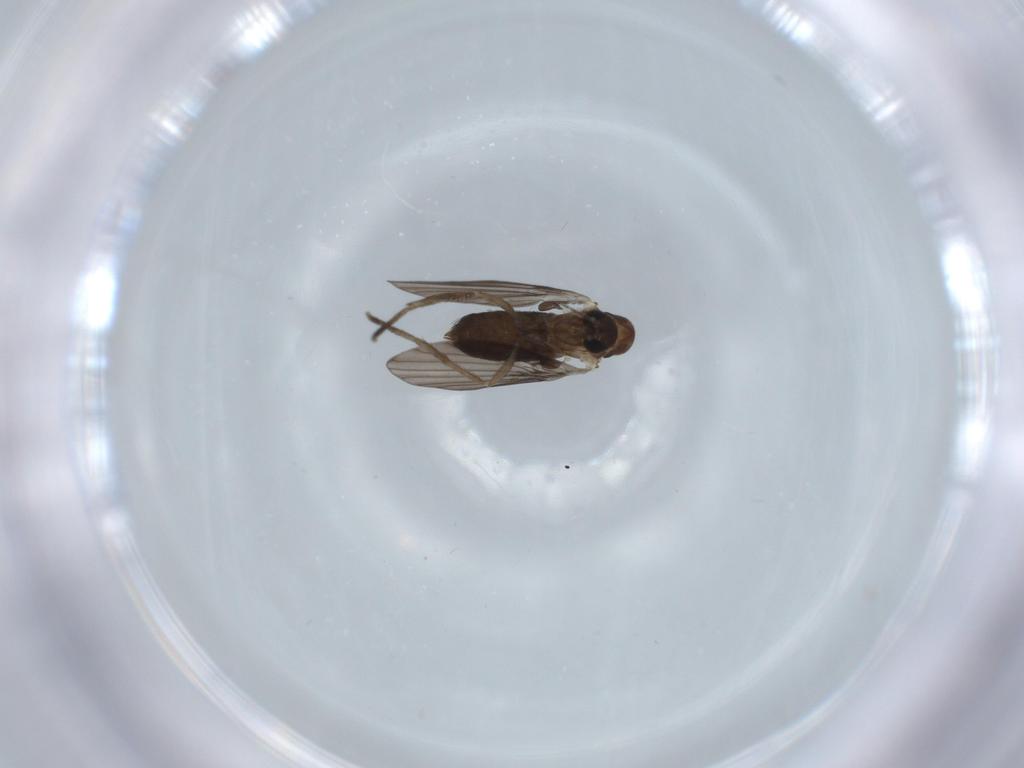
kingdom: Animalia
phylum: Arthropoda
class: Insecta
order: Diptera
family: Psychodidae
